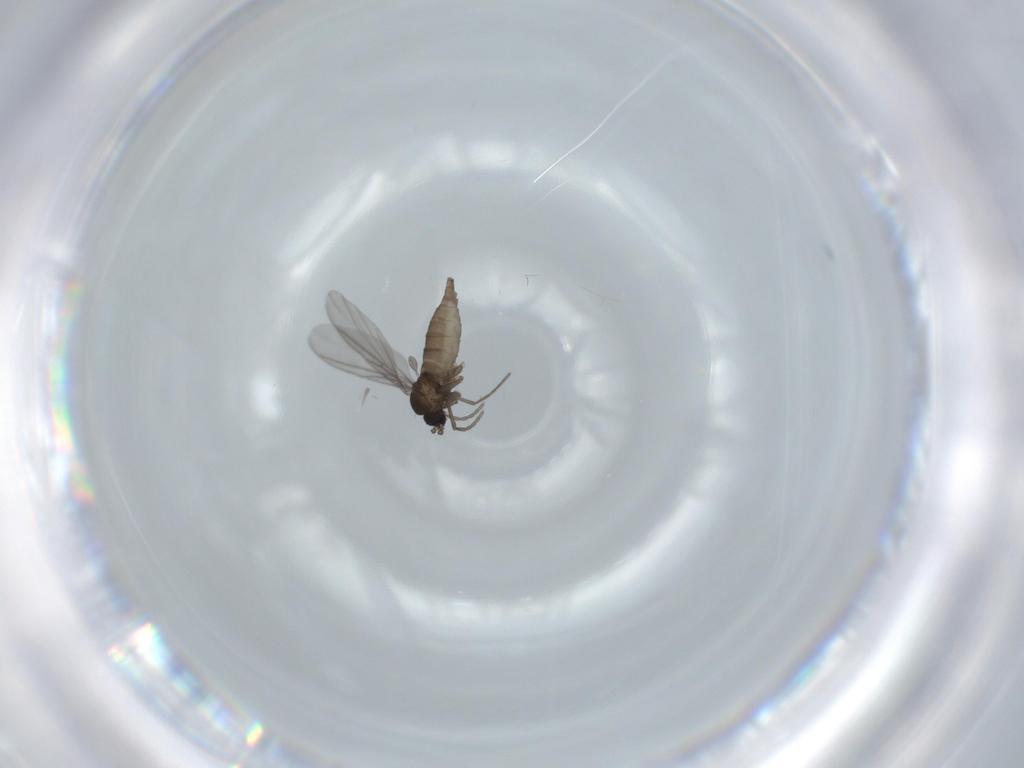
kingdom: Animalia
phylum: Arthropoda
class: Insecta
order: Diptera
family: Sciaridae
